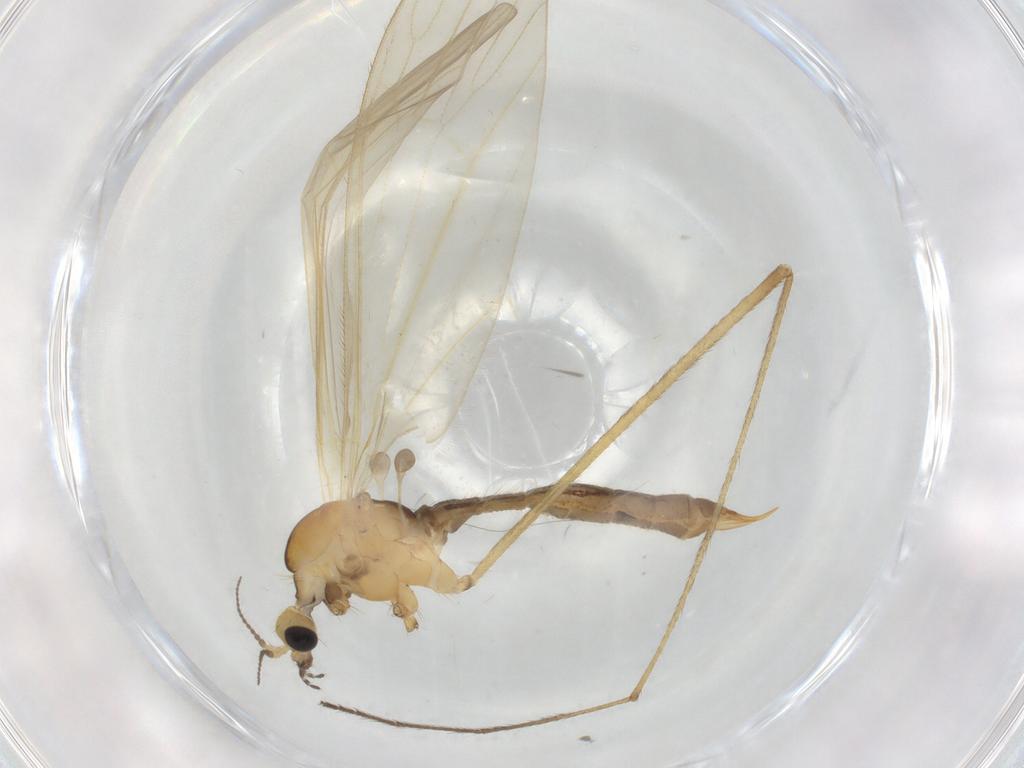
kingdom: Animalia
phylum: Arthropoda
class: Insecta
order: Diptera
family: Limoniidae
